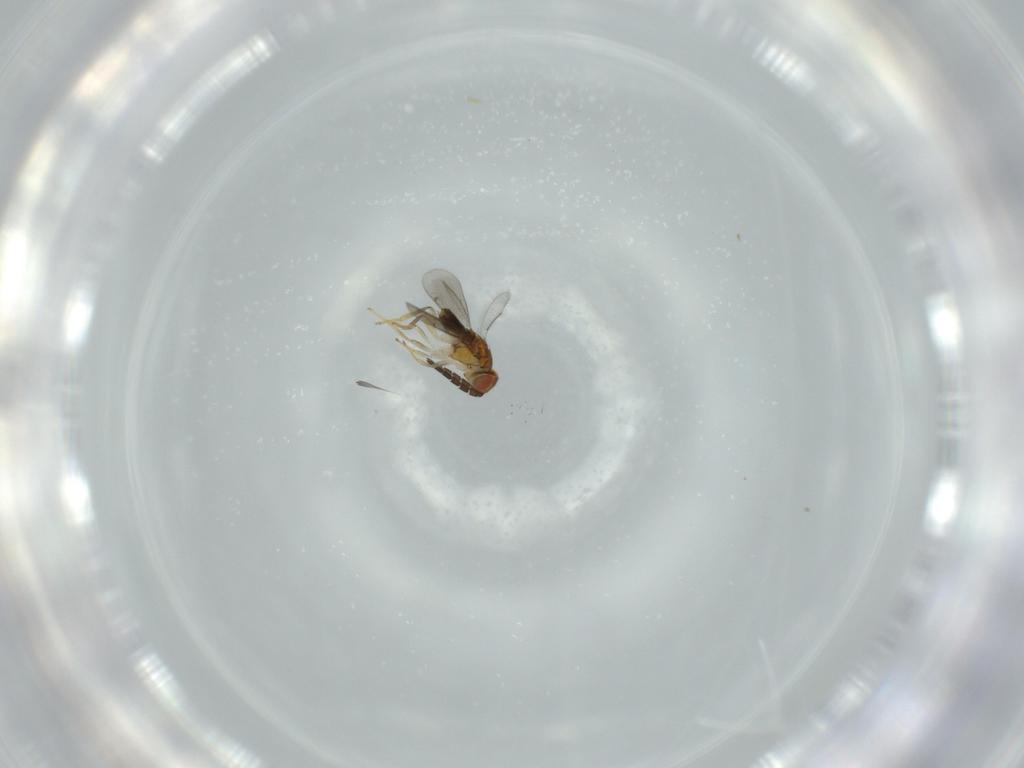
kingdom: Animalia
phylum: Arthropoda
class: Insecta
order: Hymenoptera
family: Aphelinidae
